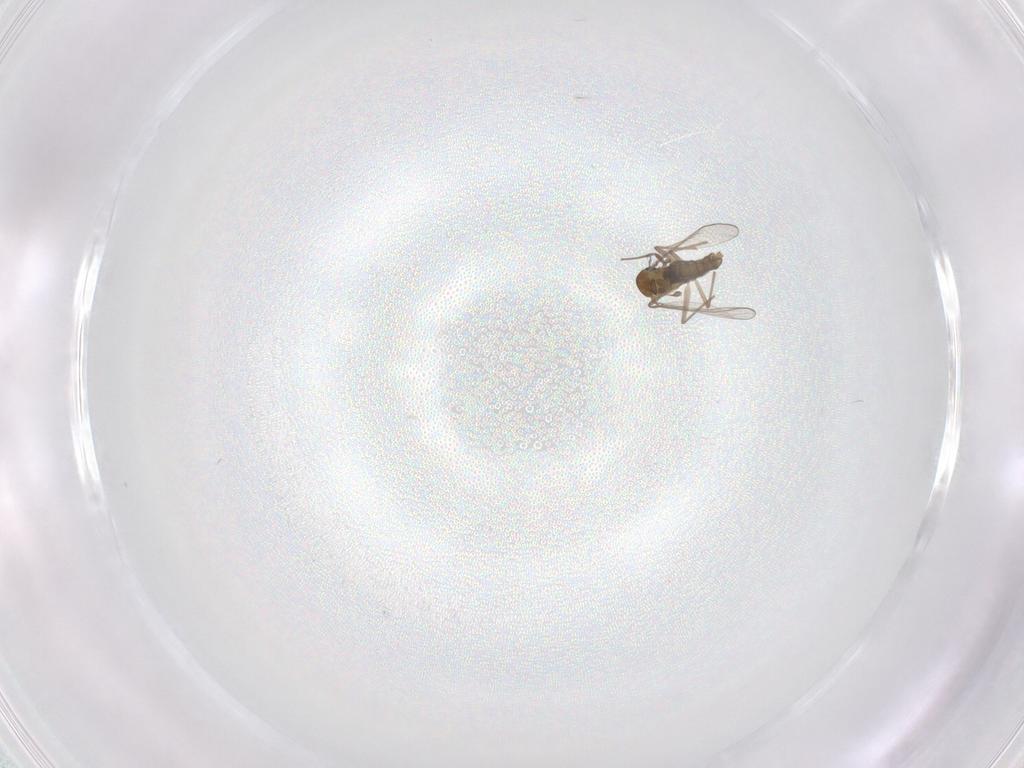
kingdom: Animalia
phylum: Arthropoda
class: Insecta
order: Diptera
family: Chironomidae
